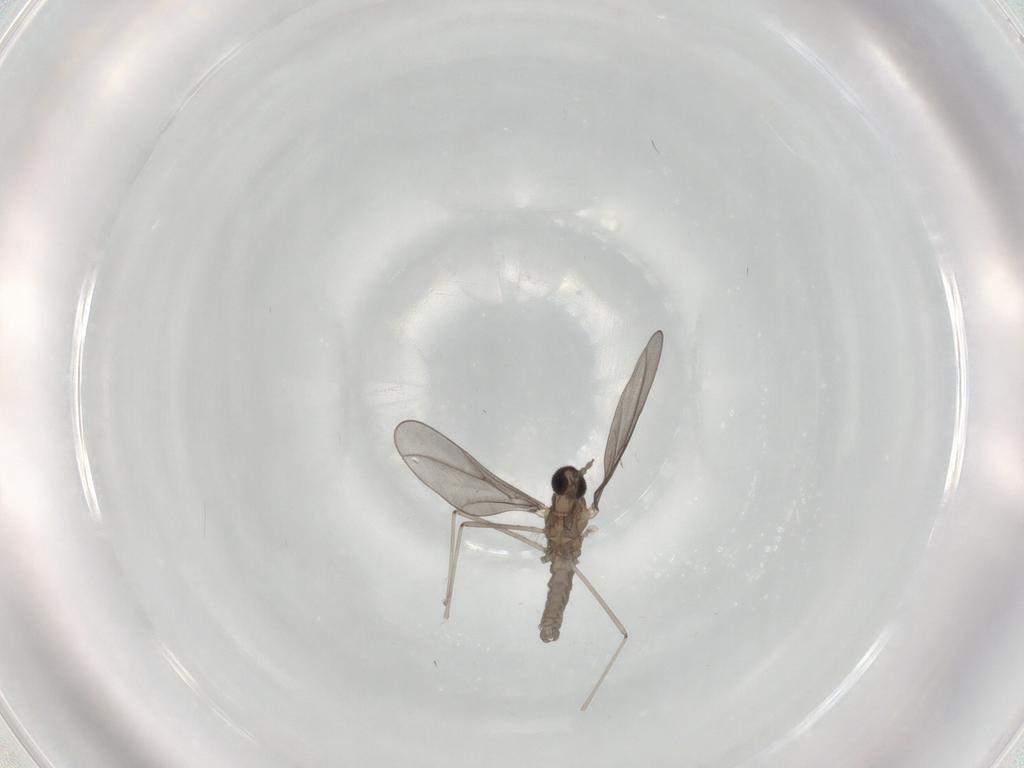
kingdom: Animalia
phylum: Arthropoda
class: Insecta
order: Diptera
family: Cecidomyiidae
